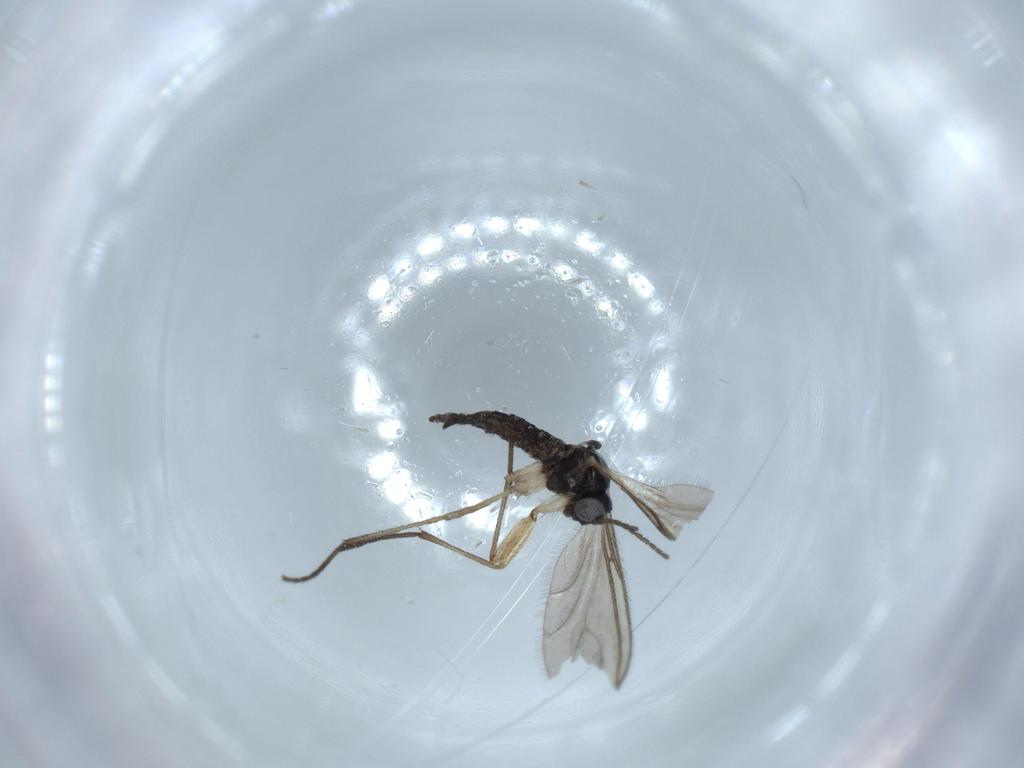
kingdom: Animalia
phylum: Arthropoda
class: Insecta
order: Diptera
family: Sciaridae
